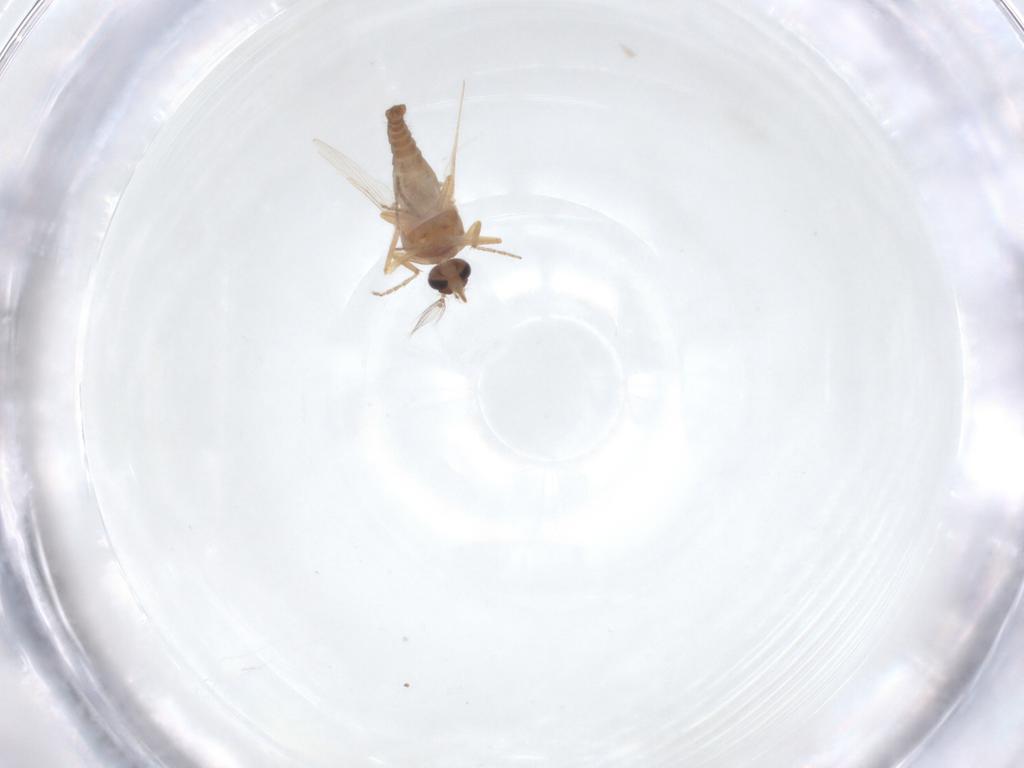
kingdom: Animalia
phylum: Arthropoda
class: Insecta
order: Diptera
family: Ceratopogonidae
